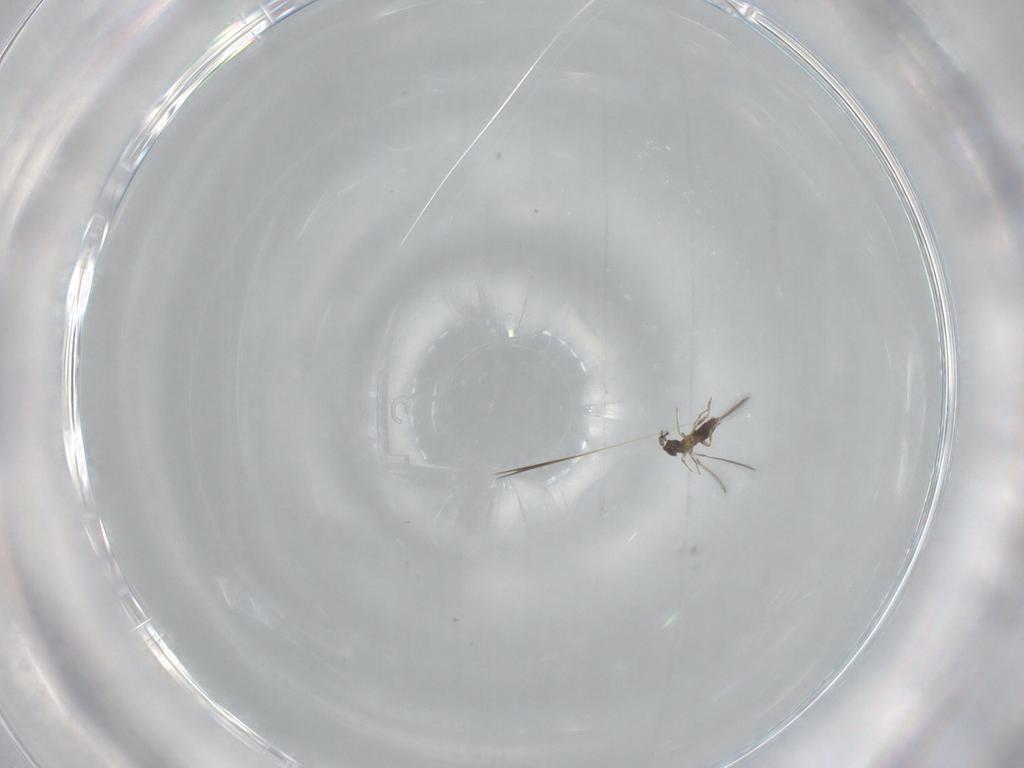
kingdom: Animalia
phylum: Arthropoda
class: Insecta
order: Hymenoptera
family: Mymaridae
